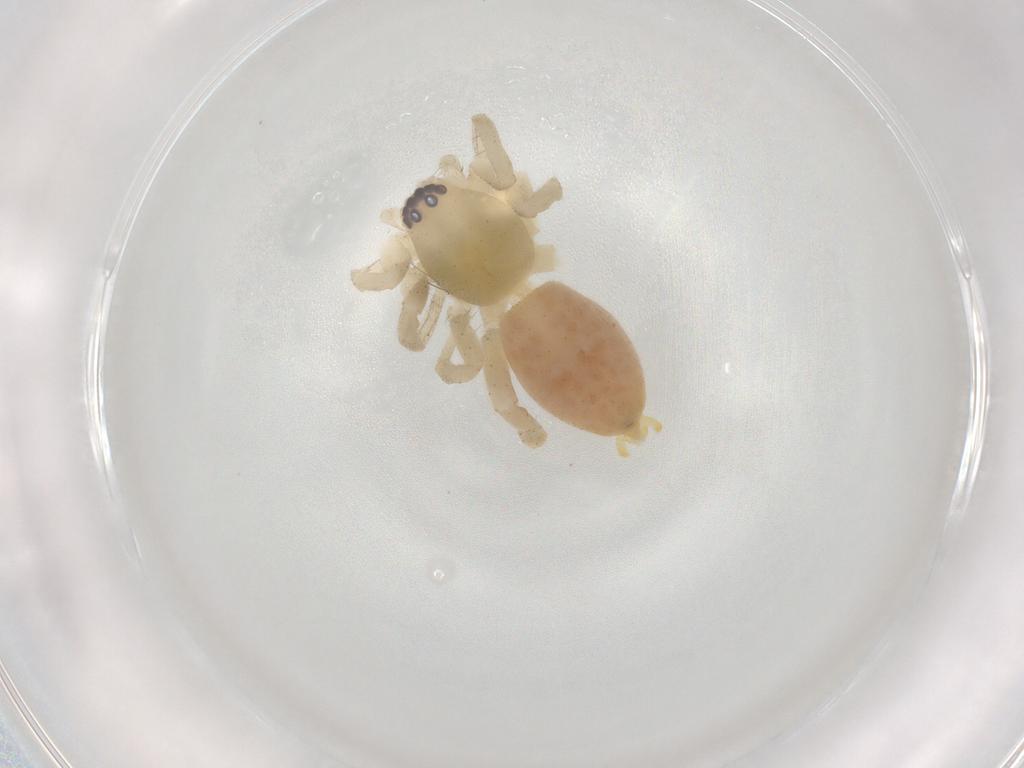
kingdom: Animalia
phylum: Arthropoda
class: Arachnida
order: Araneae
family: Clubionidae
